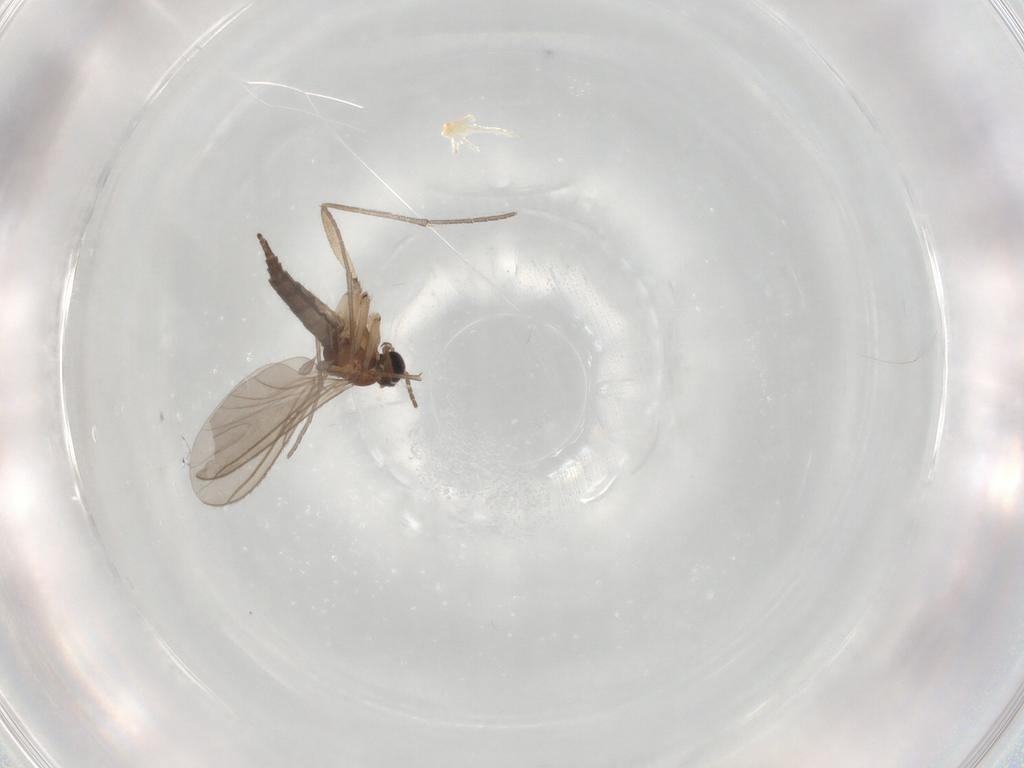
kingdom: Animalia
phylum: Arthropoda
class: Insecta
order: Diptera
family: Sciaridae
